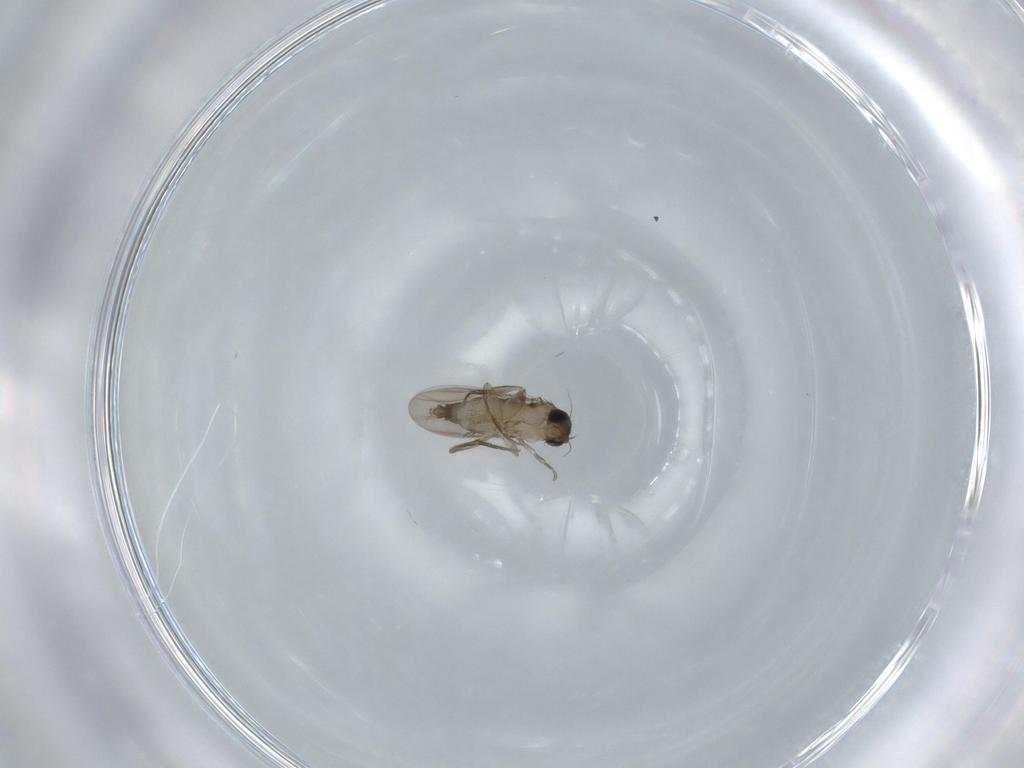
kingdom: Animalia
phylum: Arthropoda
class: Insecta
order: Diptera
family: Phoridae
